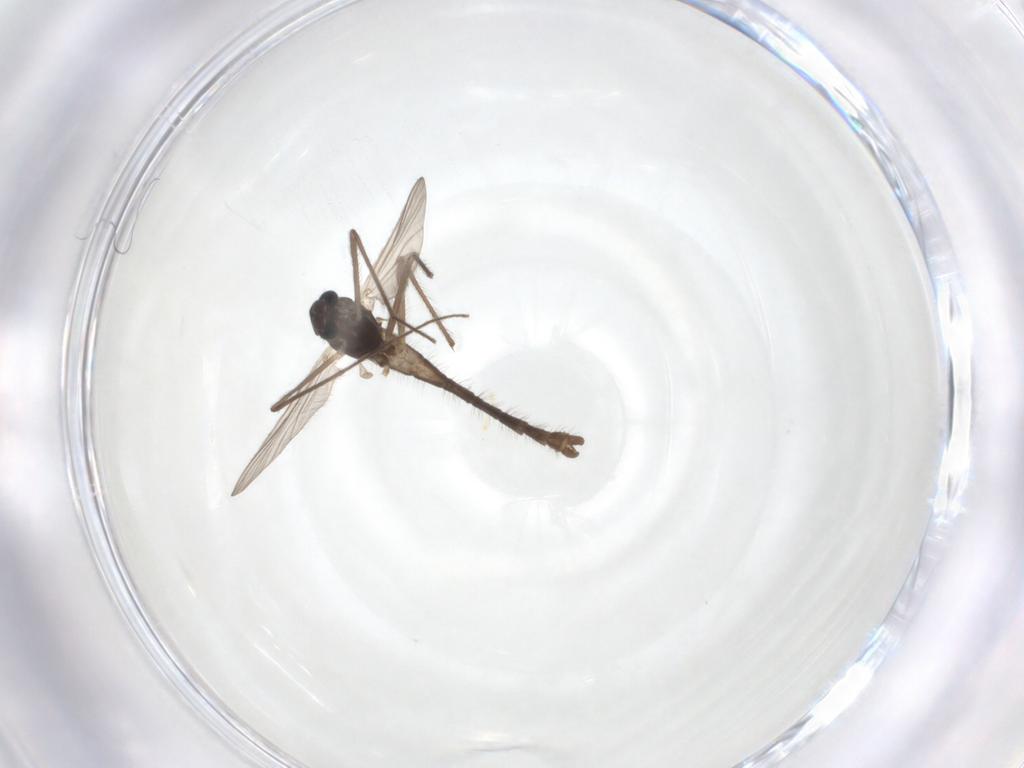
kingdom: Animalia
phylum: Arthropoda
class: Insecta
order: Diptera
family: Chironomidae
